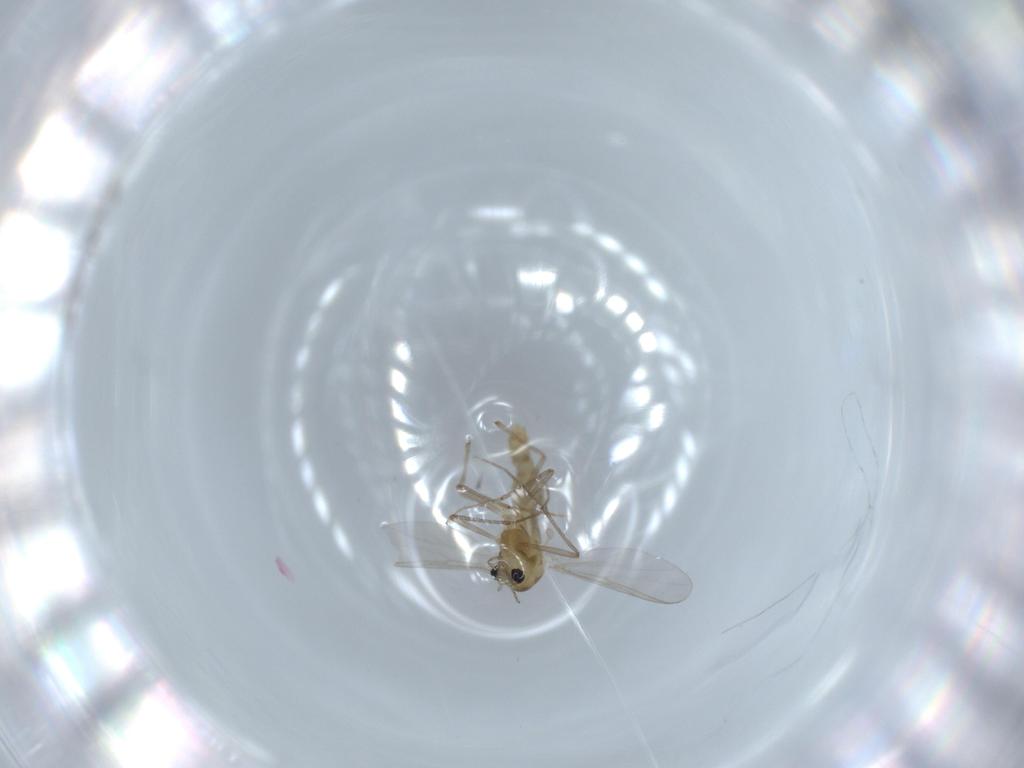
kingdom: Animalia
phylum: Arthropoda
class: Insecta
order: Diptera
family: Chironomidae
